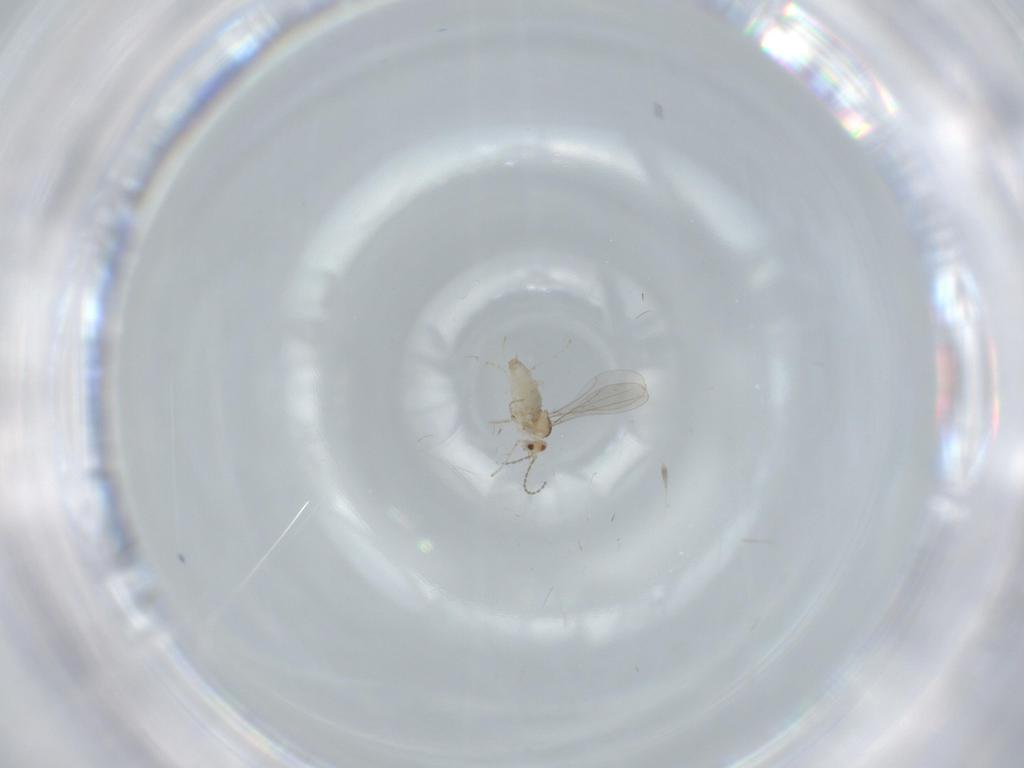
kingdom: Animalia
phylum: Arthropoda
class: Insecta
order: Diptera
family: Cecidomyiidae
